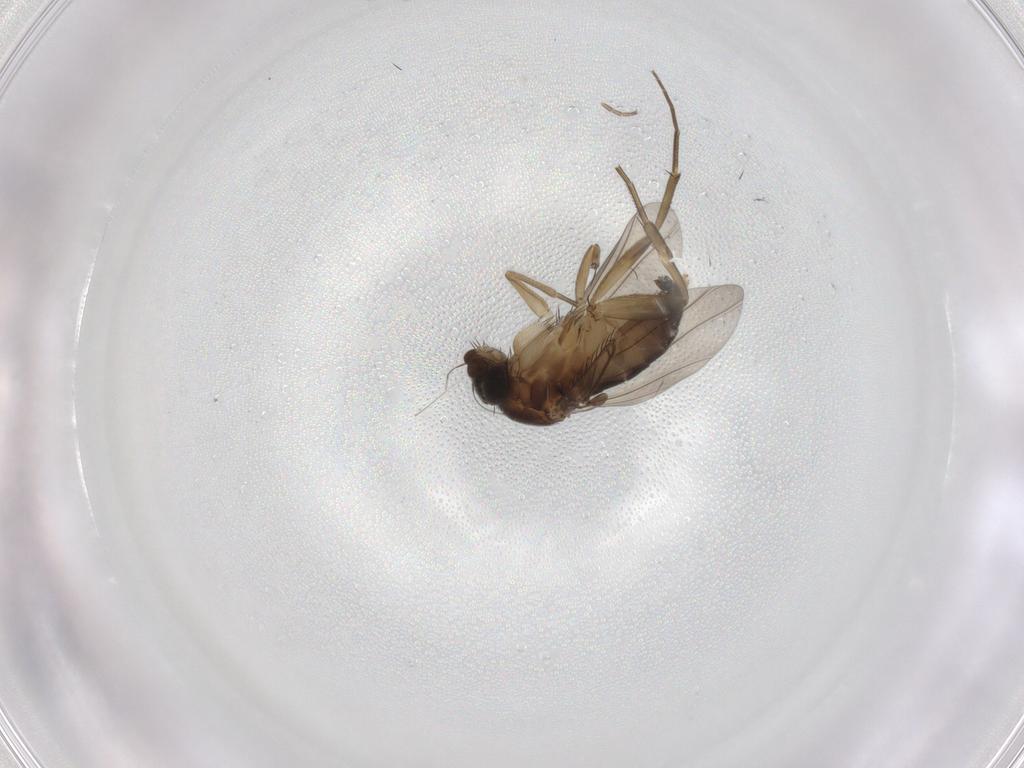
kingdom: Animalia
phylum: Arthropoda
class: Insecta
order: Diptera
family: Phoridae
